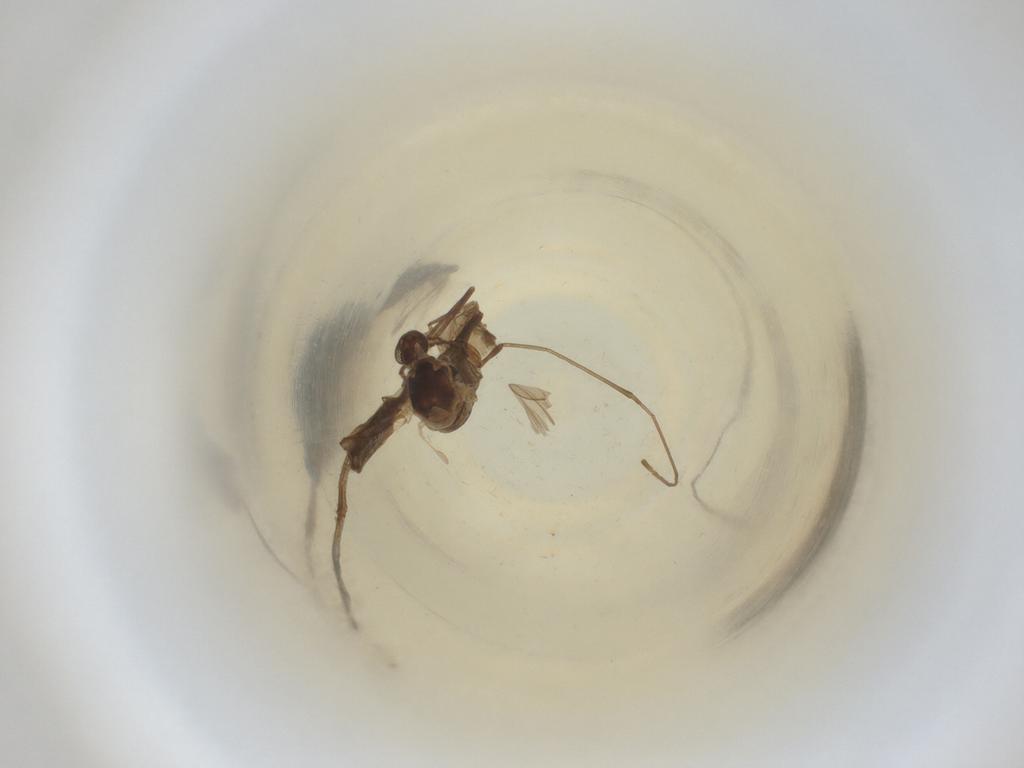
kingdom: Animalia
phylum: Arthropoda
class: Insecta
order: Diptera
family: Cecidomyiidae
